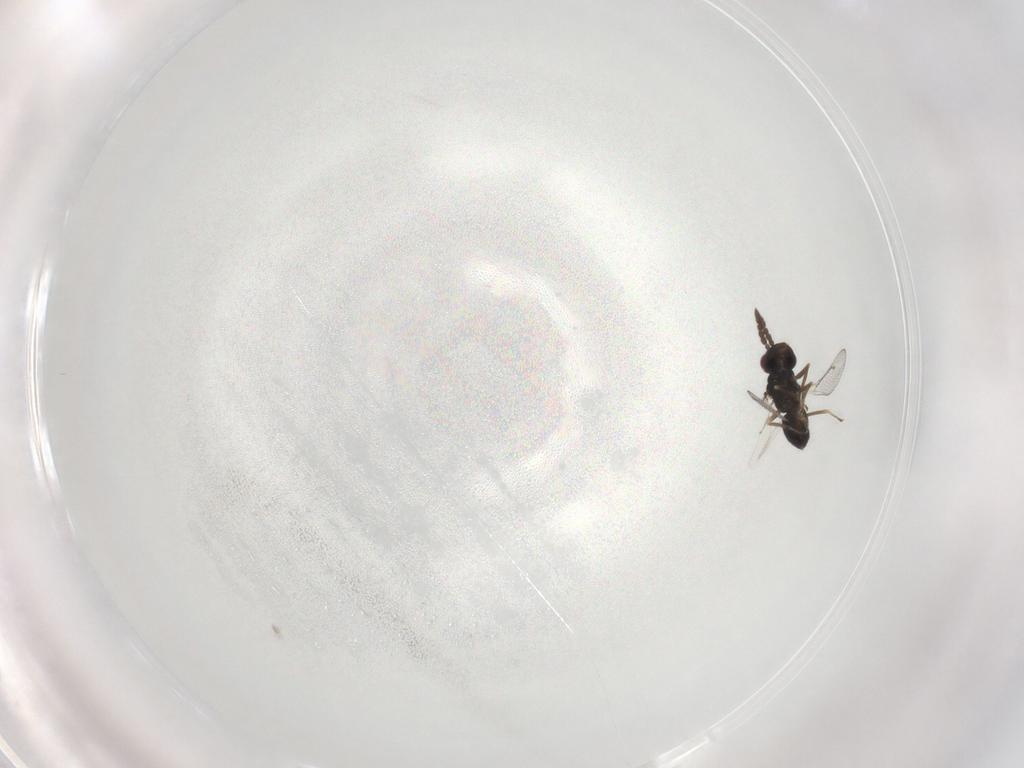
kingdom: Animalia
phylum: Arthropoda
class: Insecta
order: Hymenoptera
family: Eulophidae
